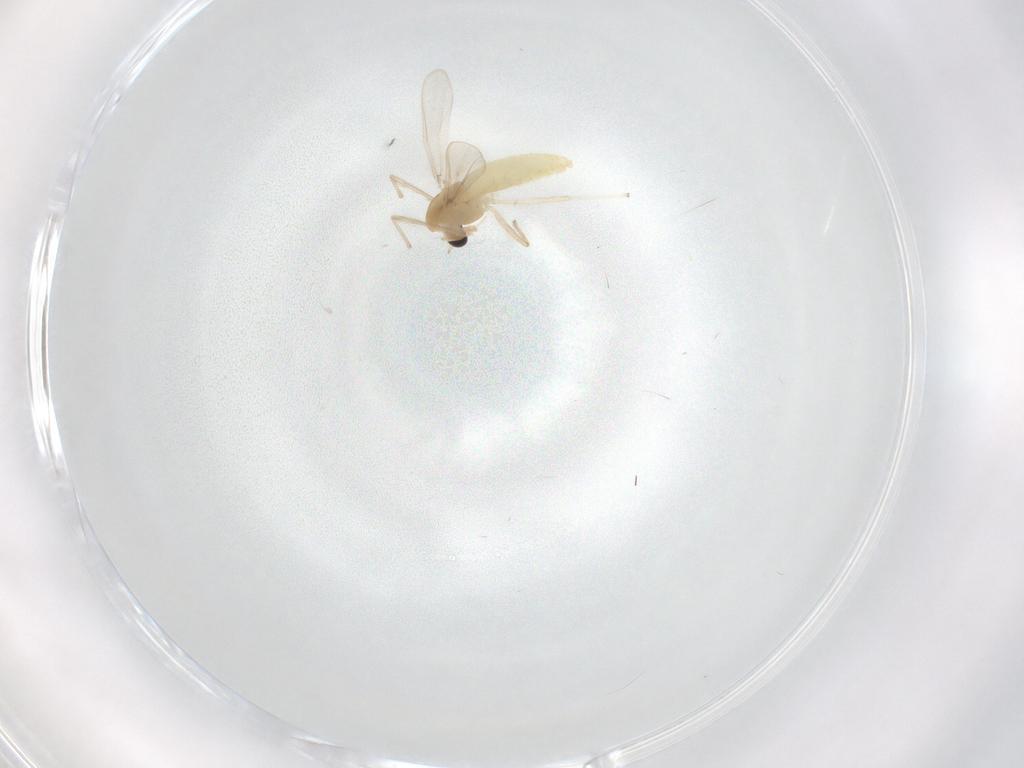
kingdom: Animalia
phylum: Arthropoda
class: Insecta
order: Diptera
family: Chironomidae
